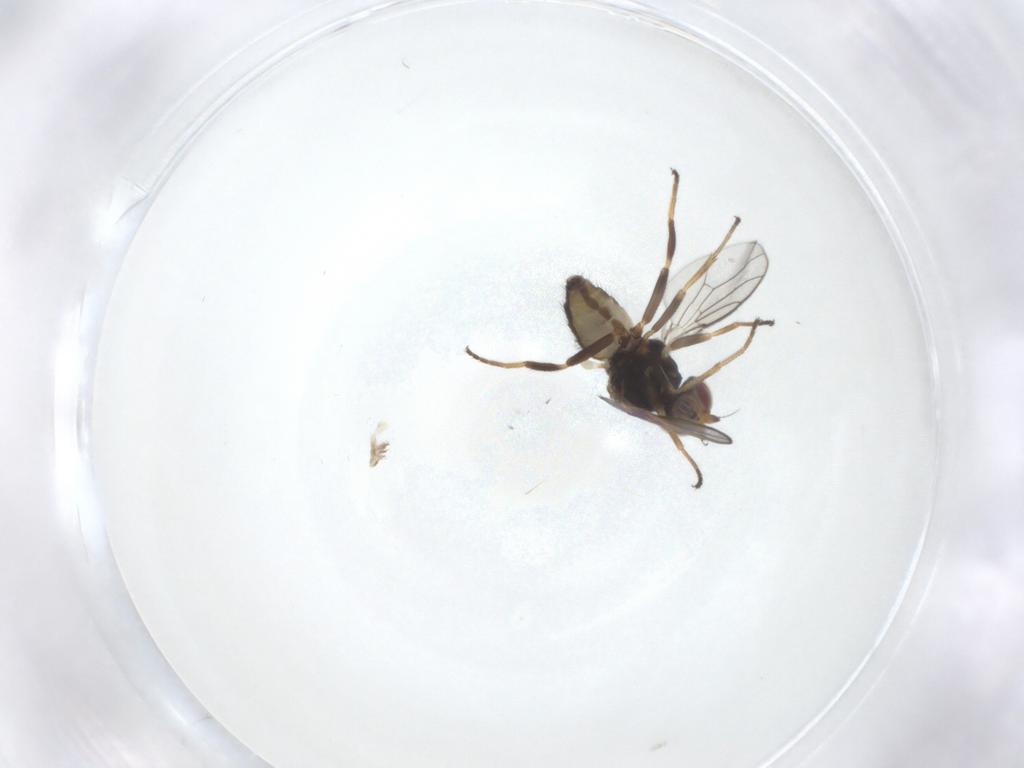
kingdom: Animalia
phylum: Arthropoda
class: Insecta
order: Diptera
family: Chloropidae
